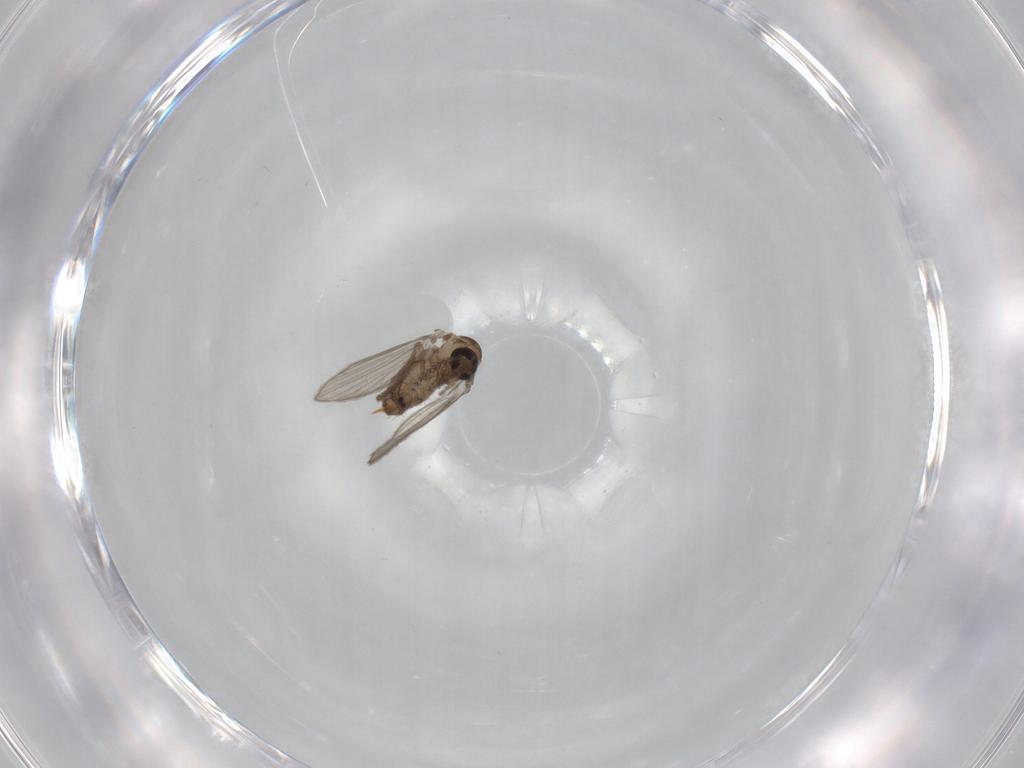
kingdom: Animalia
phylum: Arthropoda
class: Insecta
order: Diptera
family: Psychodidae
